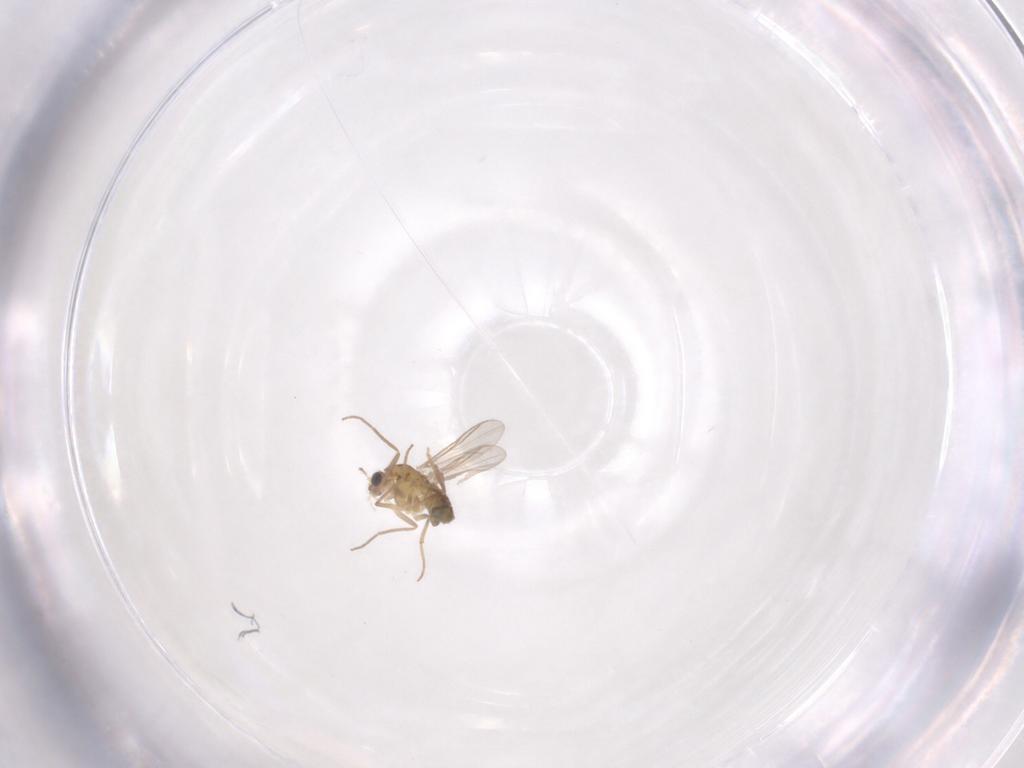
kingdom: Animalia
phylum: Arthropoda
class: Insecta
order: Diptera
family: Chironomidae
